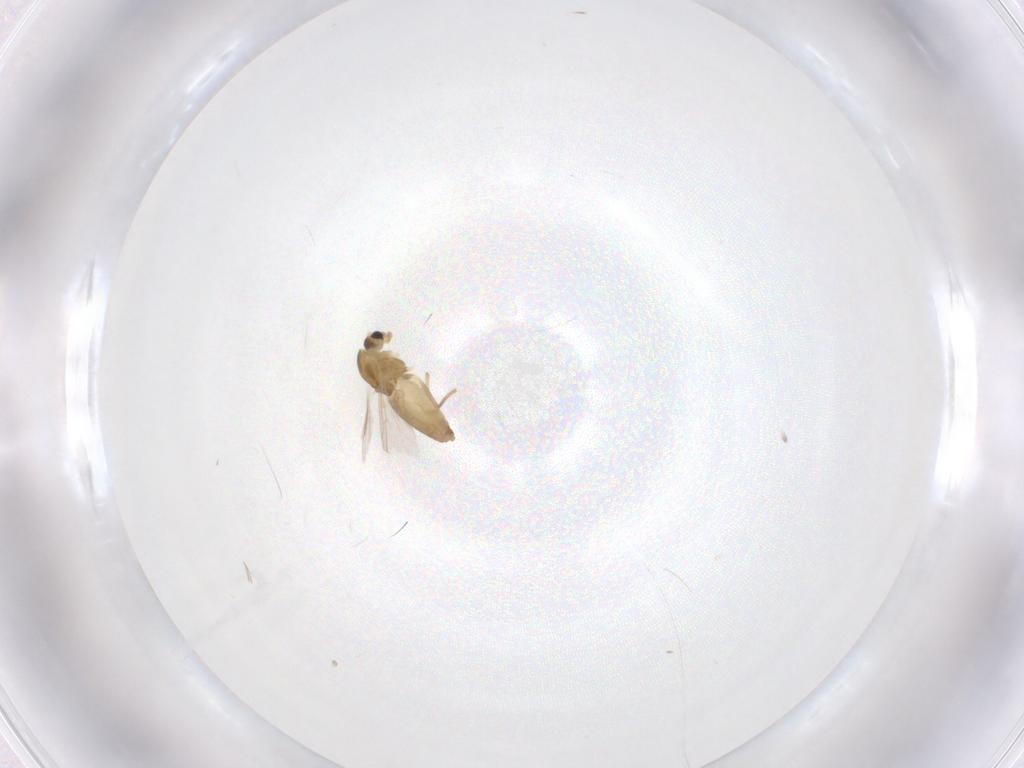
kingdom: Animalia
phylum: Arthropoda
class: Insecta
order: Diptera
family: Chironomidae
